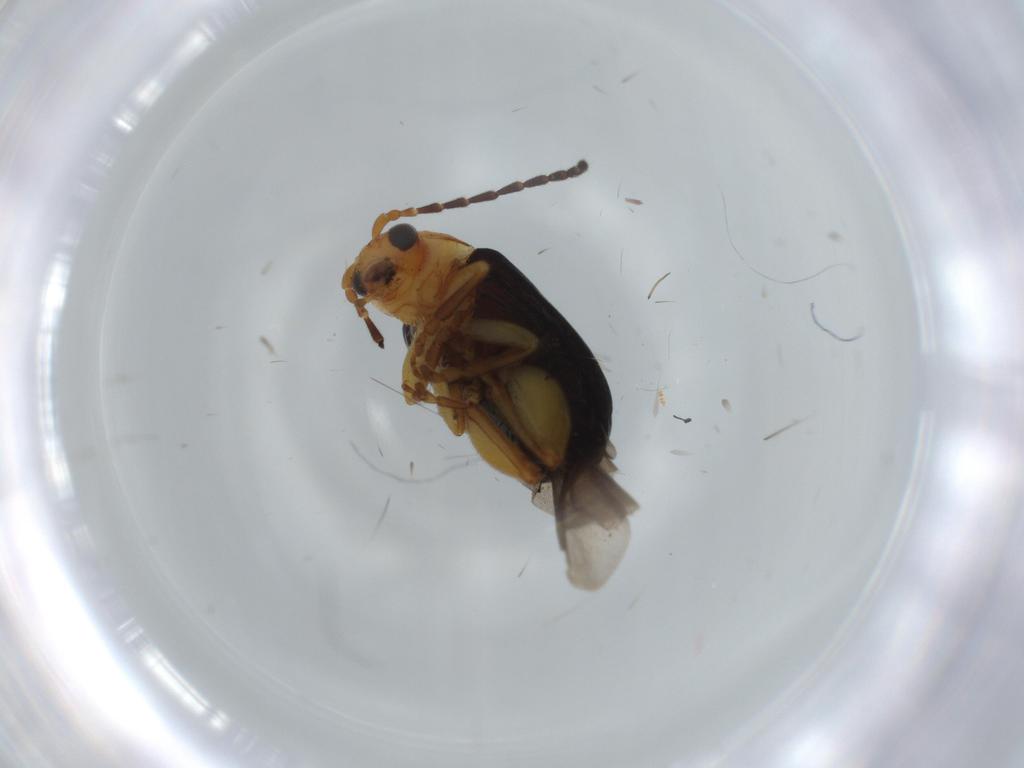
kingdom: Animalia
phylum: Arthropoda
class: Insecta
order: Coleoptera
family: Chrysomelidae
